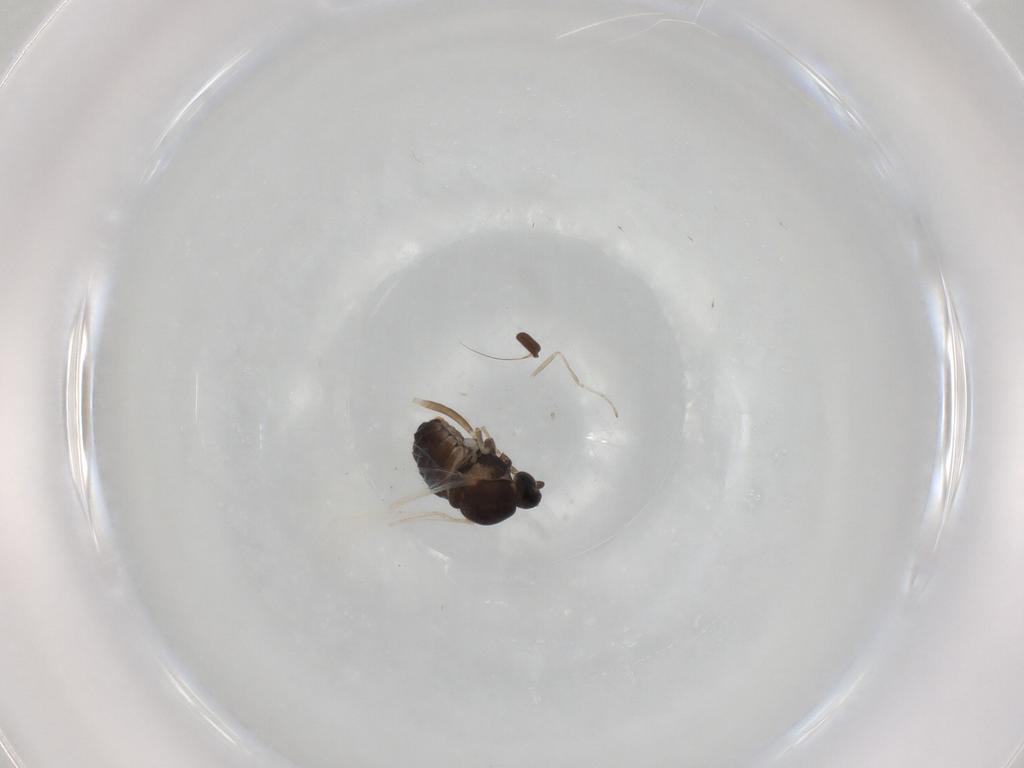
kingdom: Animalia
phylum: Arthropoda
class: Insecta
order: Diptera
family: Cecidomyiidae
